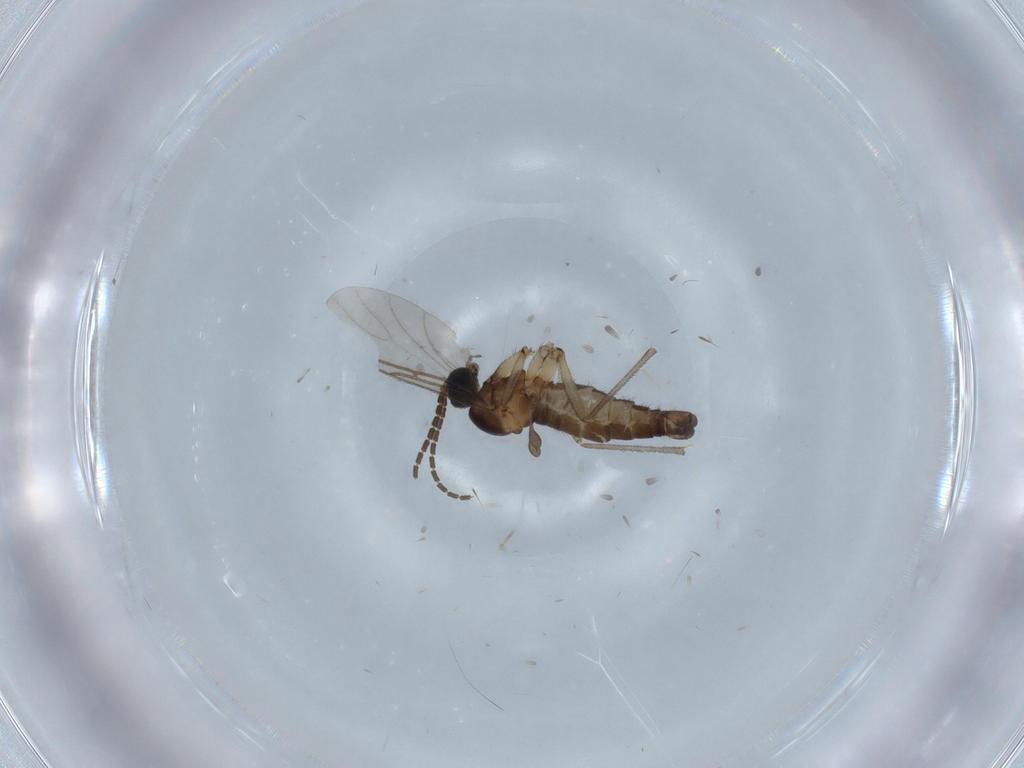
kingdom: Animalia
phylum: Arthropoda
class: Insecta
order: Diptera
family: Sciaridae
